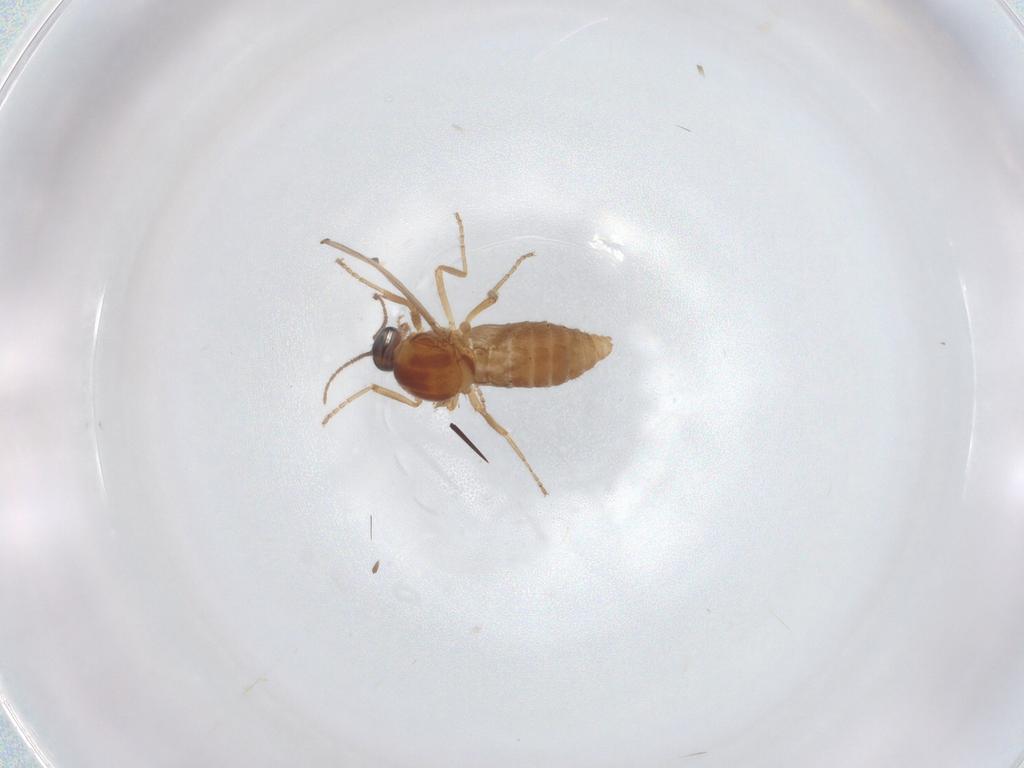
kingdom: Animalia
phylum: Arthropoda
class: Insecta
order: Diptera
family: Ceratopogonidae
